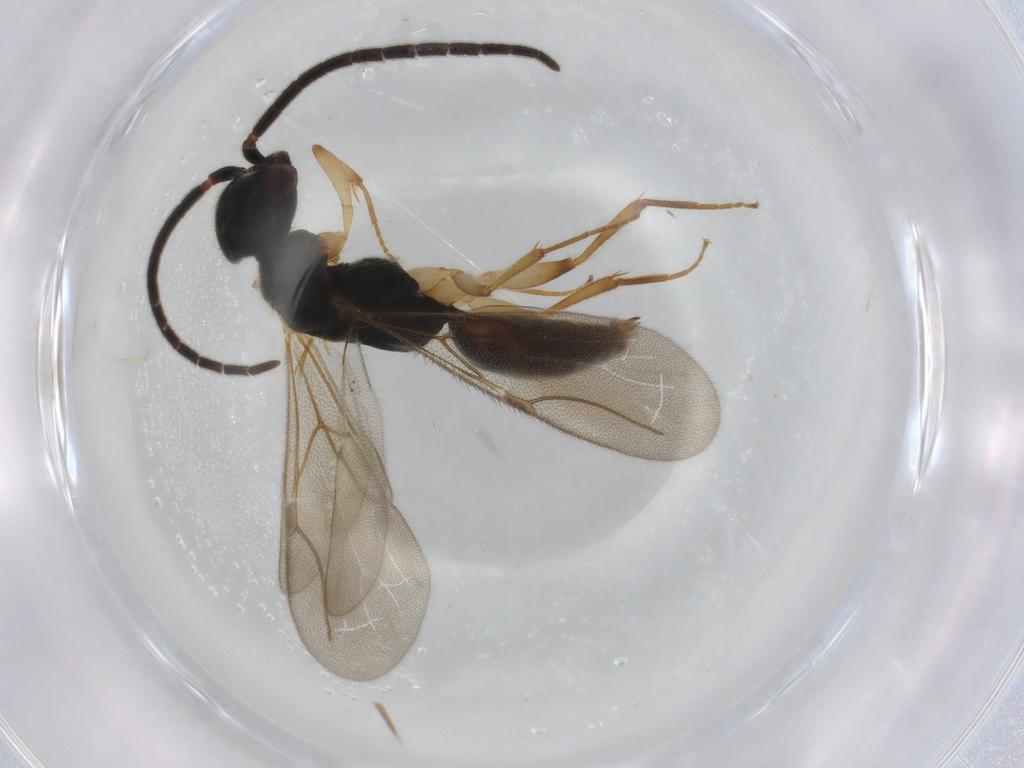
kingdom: Animalia
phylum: Arthropoda
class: Insecta
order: Hymenoptera
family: Bethylidae
